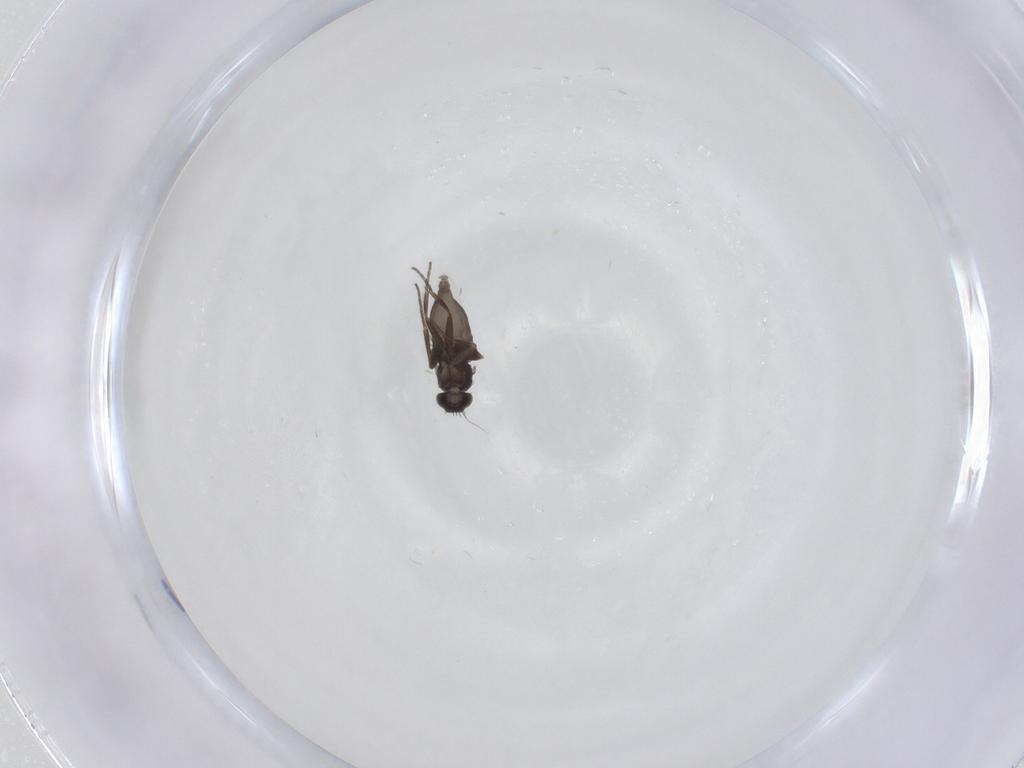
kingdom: Animalia
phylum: Arthropoda
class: Insecta
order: Diptera
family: Phoridae
